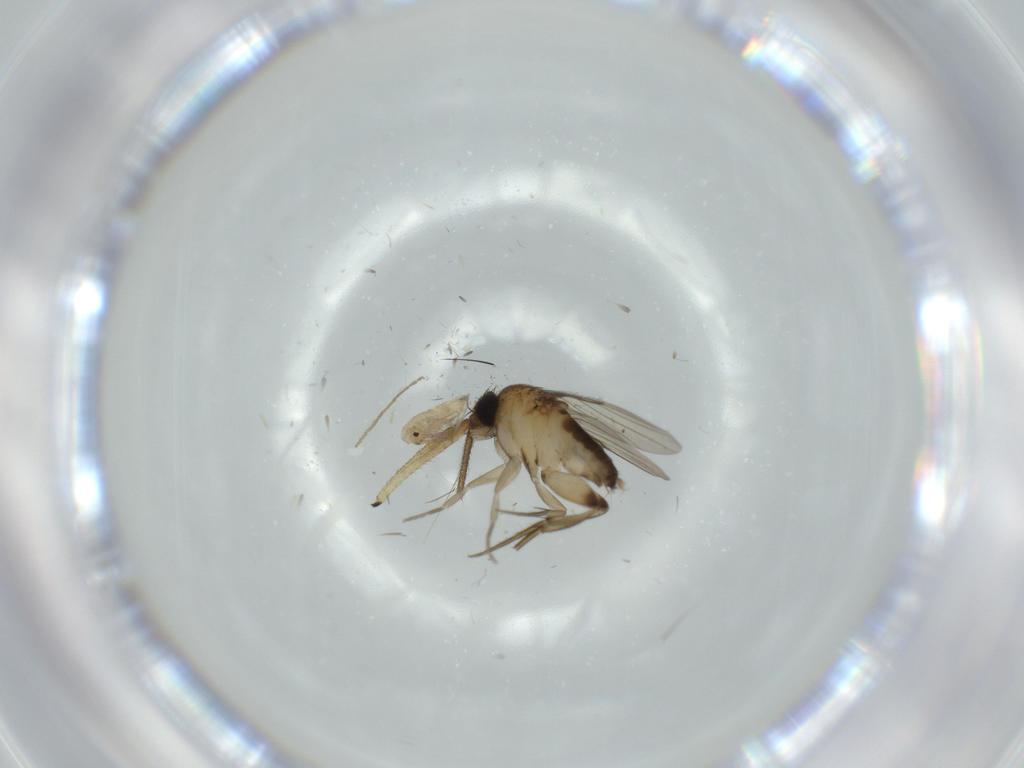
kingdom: Animalia
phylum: Arthropoda
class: Insecta
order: Diptera
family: Phoridae
